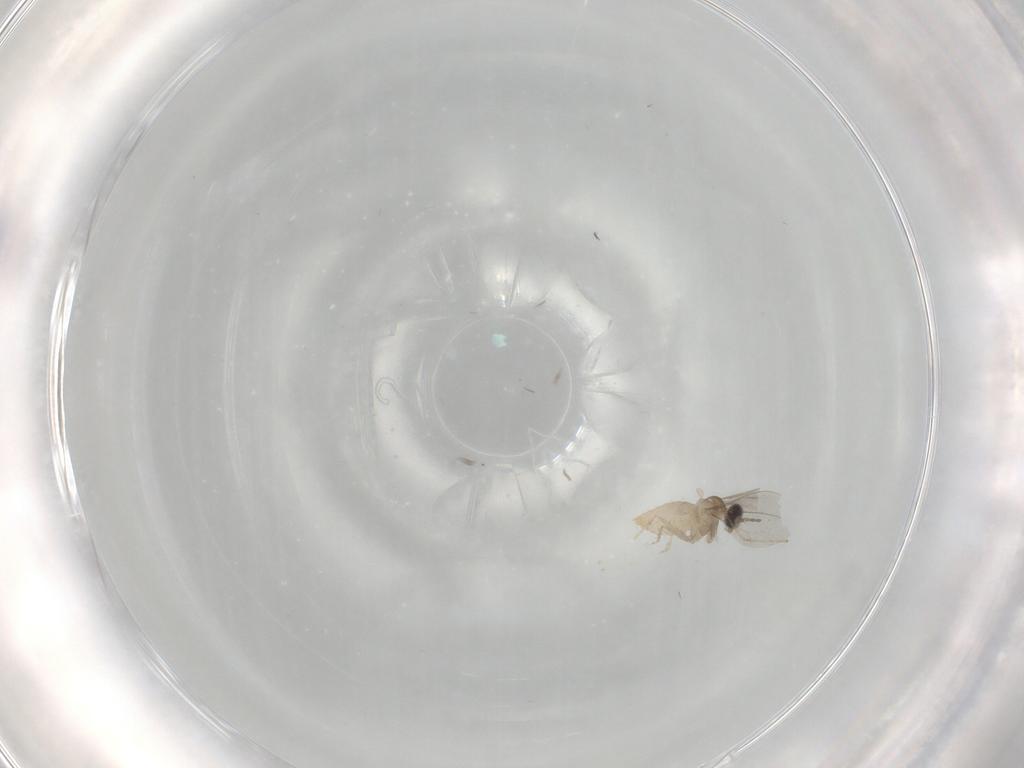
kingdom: Animalia
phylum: Arthropoda
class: Insecta
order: Diptera
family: Cecidomyiidae
